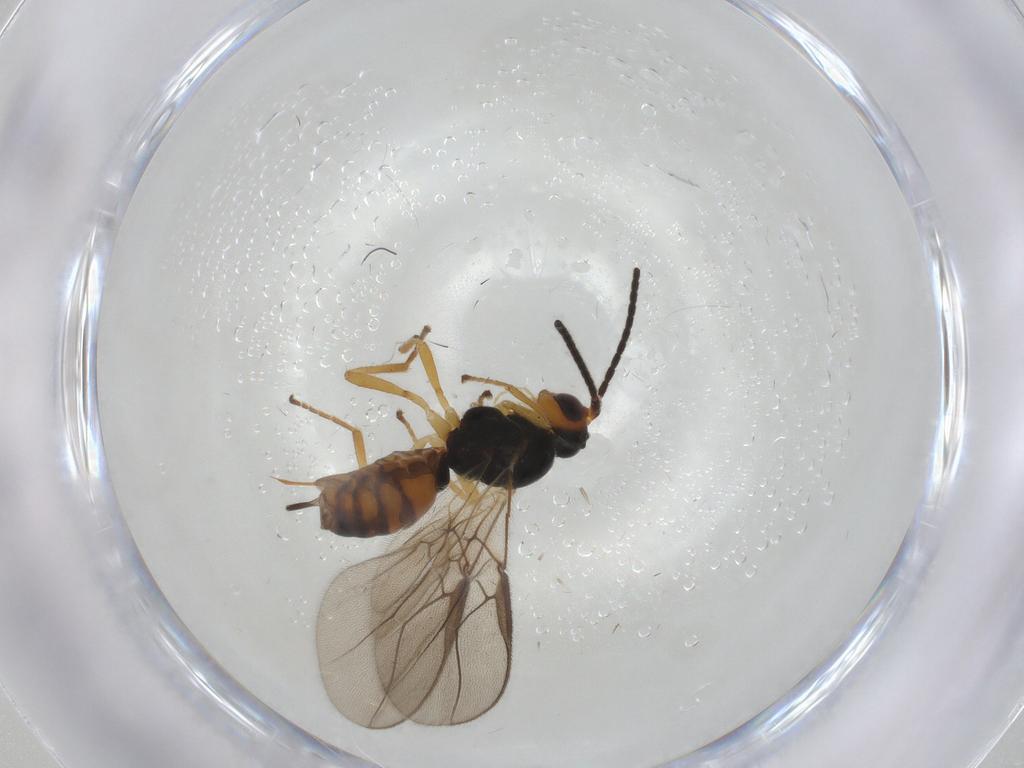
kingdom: Animalia
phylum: Arthropoda
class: Insecta
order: Hymenoptera
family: Braconidae
